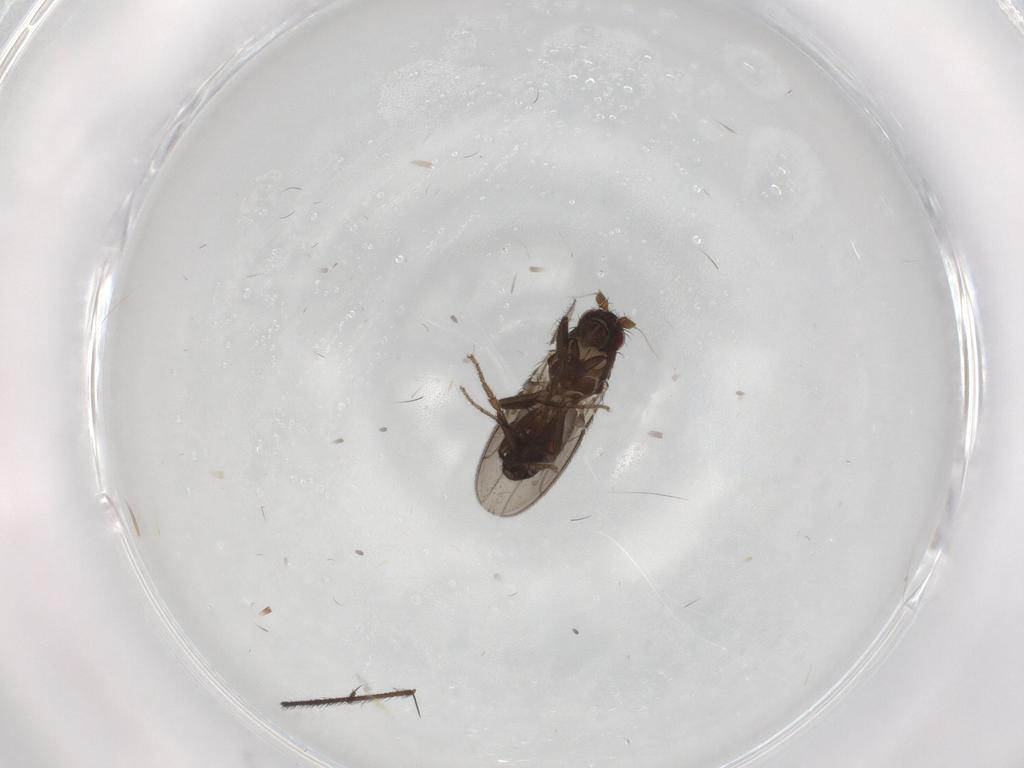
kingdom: Animalia
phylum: Arthropoda
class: Insecta
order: Diptera
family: Sphaeroceridae
